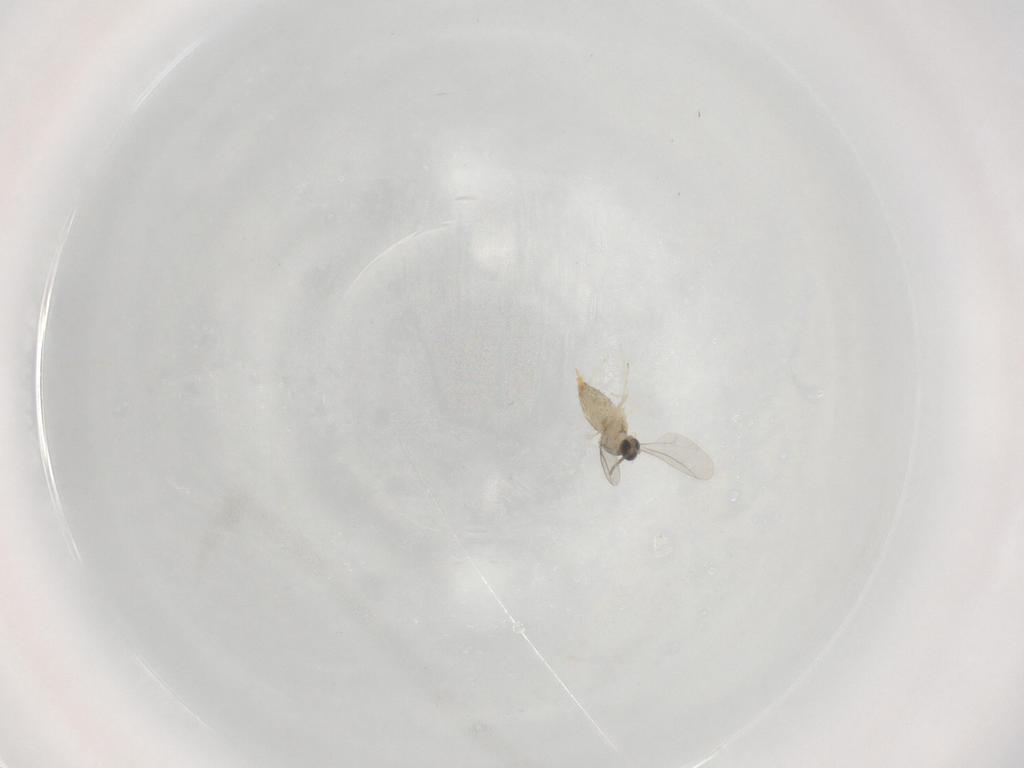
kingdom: Animalia
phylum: Arthropoda
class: Insecta
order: Diptera
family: Cecidomyiidae
